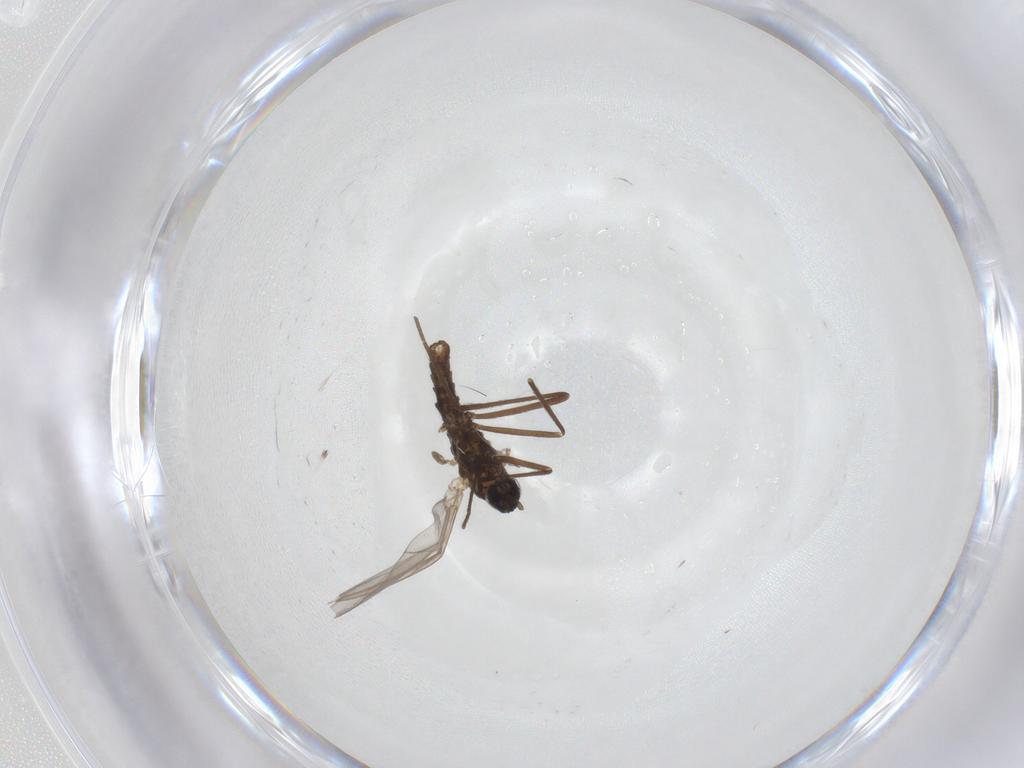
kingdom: Animalia
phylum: Arthropoda
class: Insecta
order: Diptera
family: Cecidomyiidae
